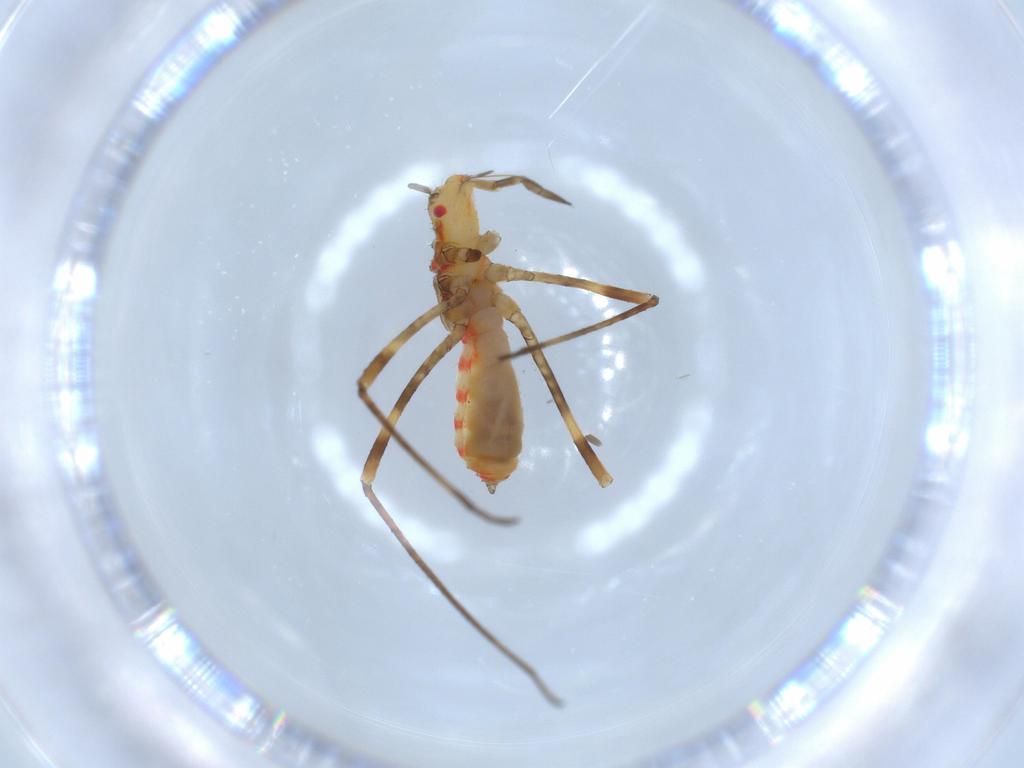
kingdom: Animalia
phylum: Arthropoda
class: Insecta
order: Hemiptera
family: Berytidae
